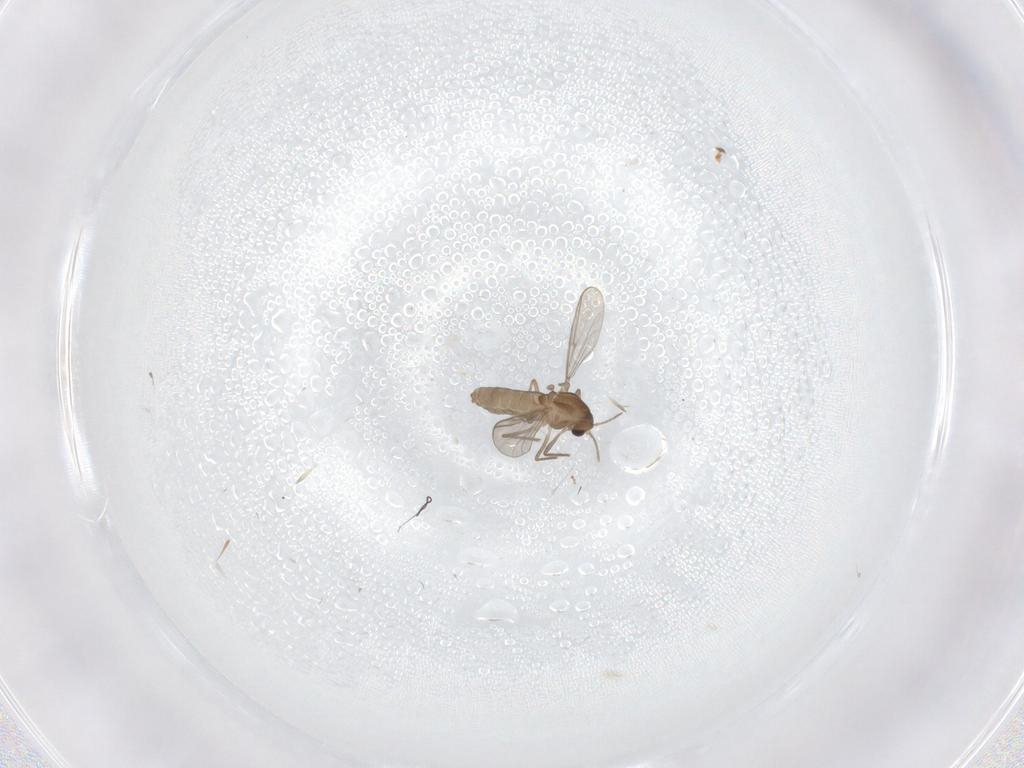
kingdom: Animalia
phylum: Arthropoda
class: Insecta
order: Diptera
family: Chironomidae
